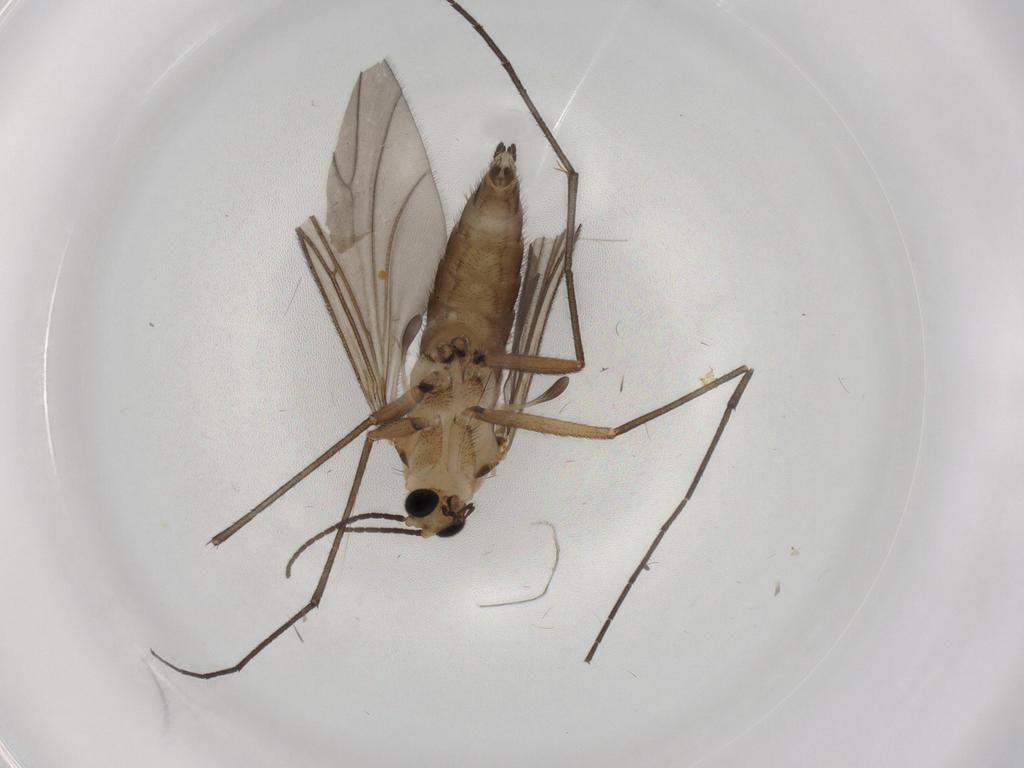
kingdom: Animalia
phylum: Arthropoda
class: Insecta
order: Diptera
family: Sciaridae
